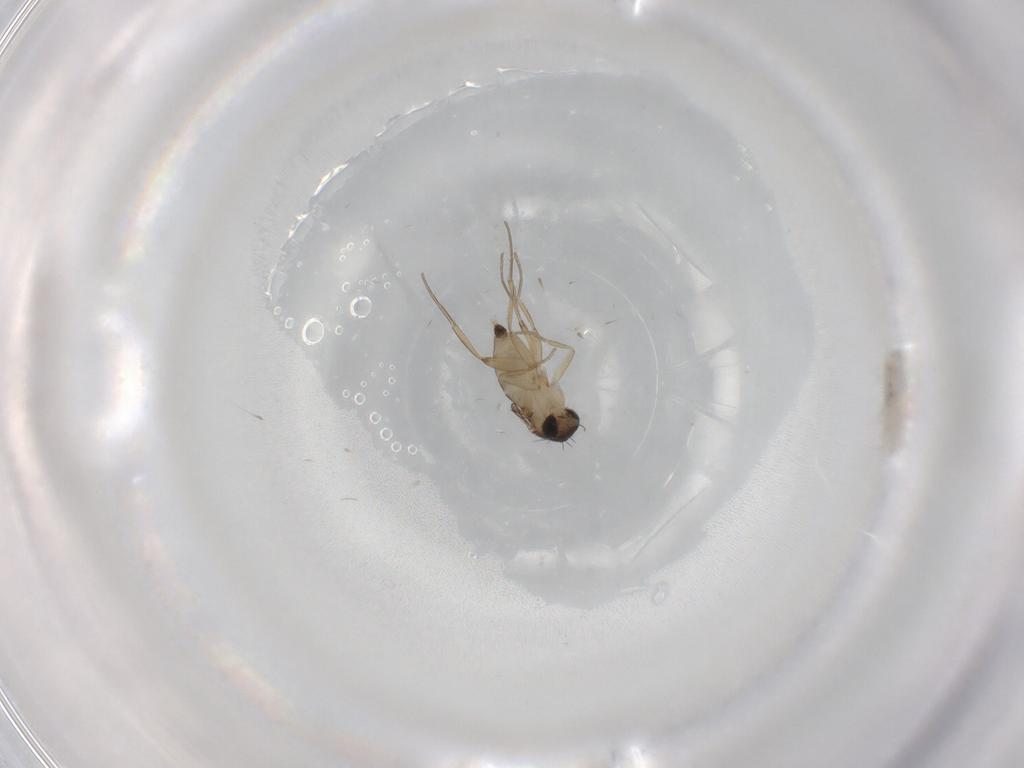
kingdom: Animalia
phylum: Arthropoda
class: Insecta
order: Diptera
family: Phoridae
